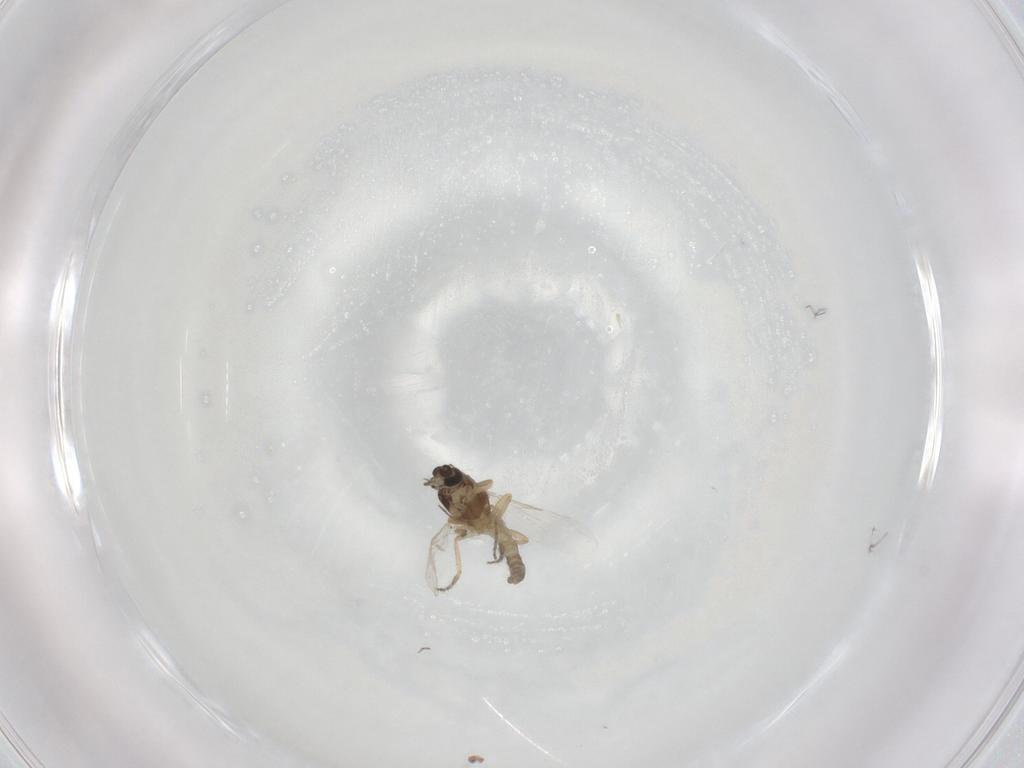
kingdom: Animalia
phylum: Arthropoda
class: Insecta
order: Diptera
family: Ceratopogonidae
